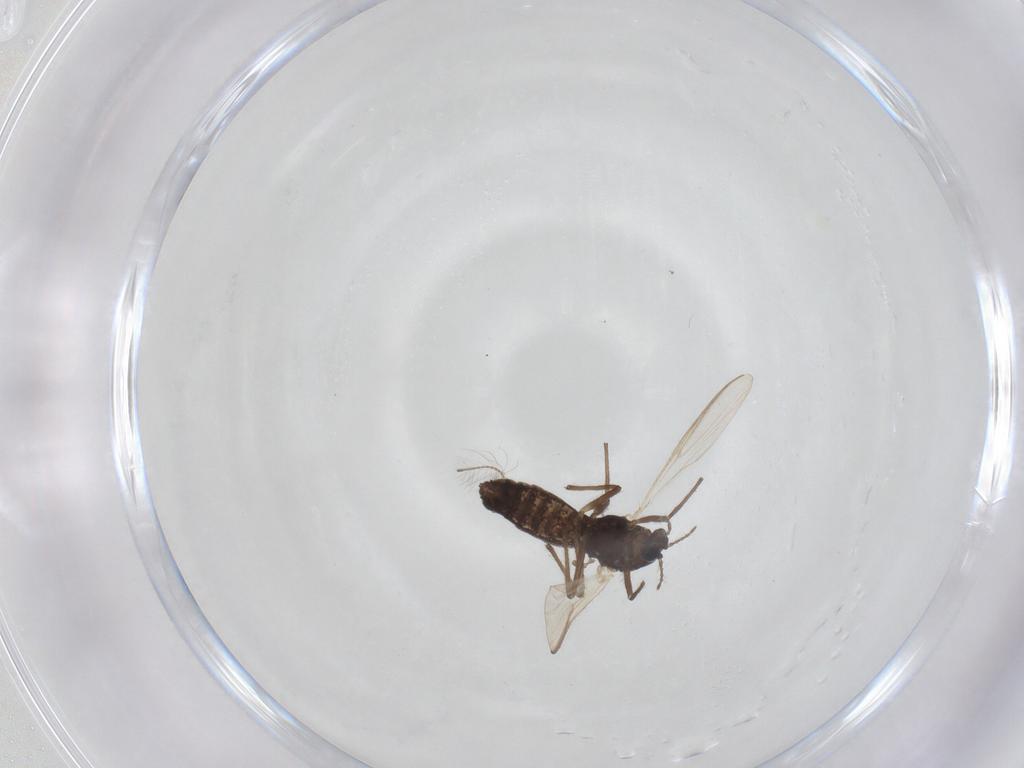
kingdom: Animalia
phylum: Arthropoda
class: Insecta
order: Diptera
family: Chironomidae
